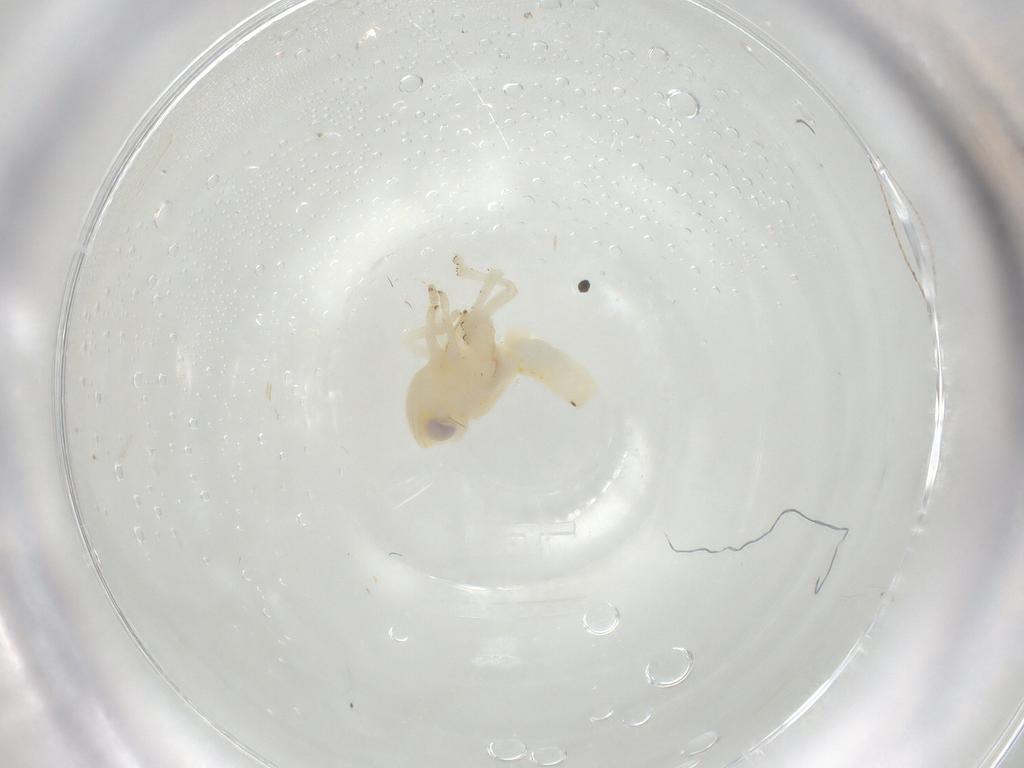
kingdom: Animalia
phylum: Arthropoda
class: Insecta
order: Hemiptera
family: Nogodinidae
